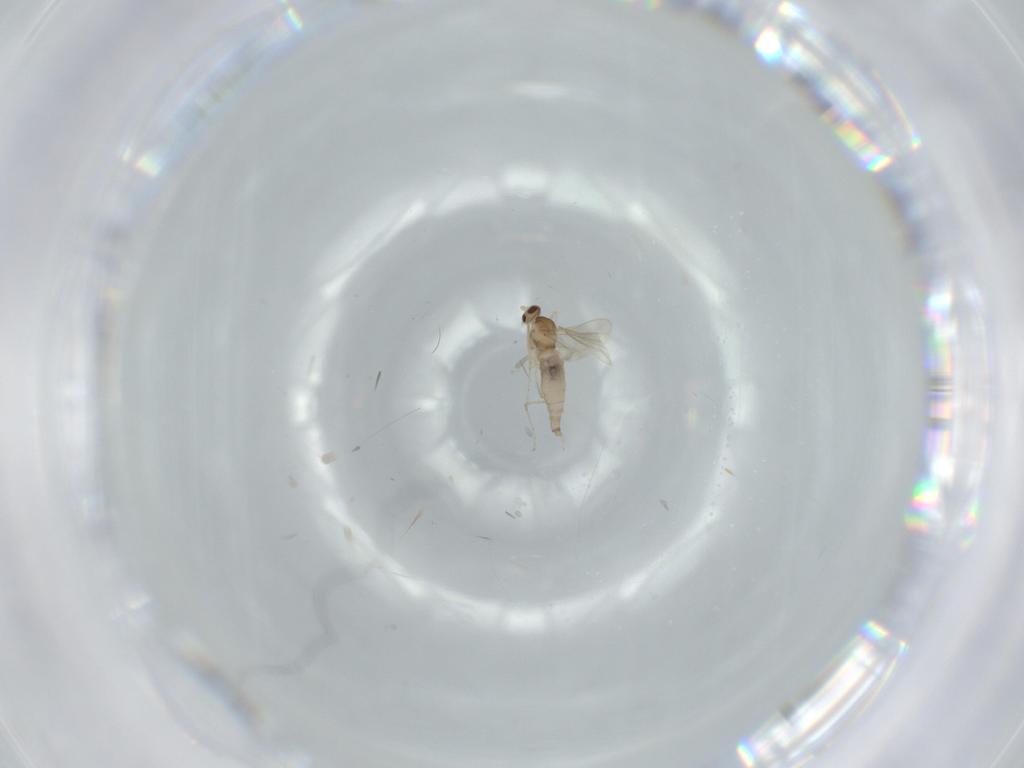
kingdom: Animalia
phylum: Arthropoda
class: Insecta
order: Diptera
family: Cecidomyiidae
